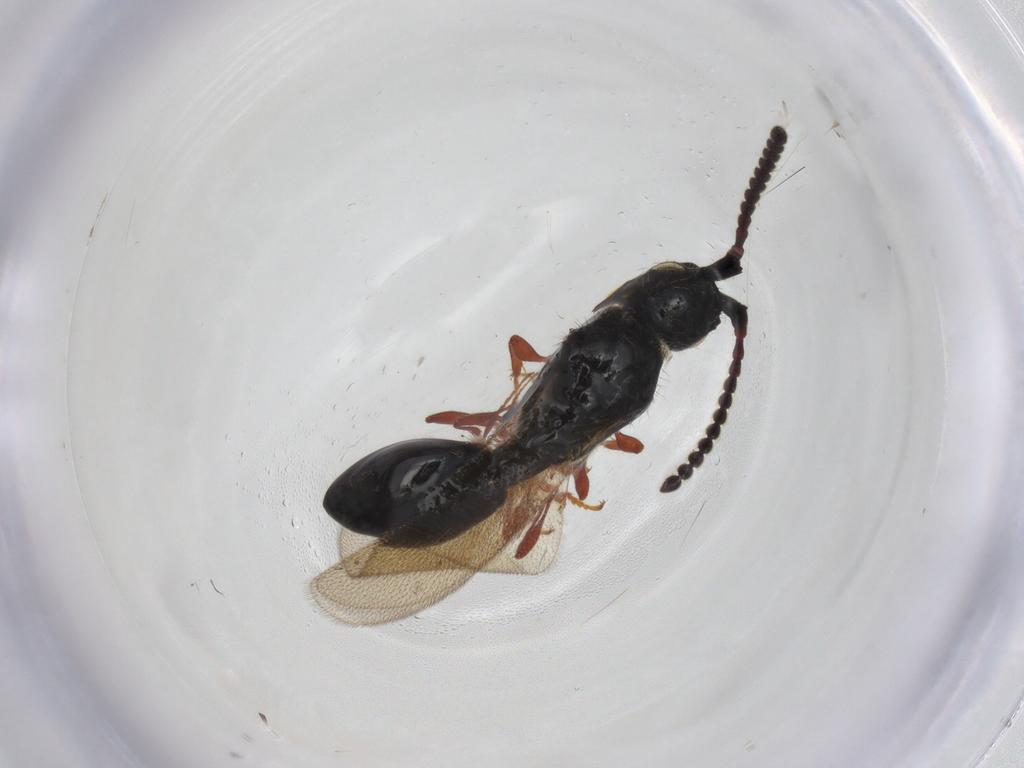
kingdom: Animalia
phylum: Arthropoda
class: Insecta
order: Hymenoptera
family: Diapriidae
